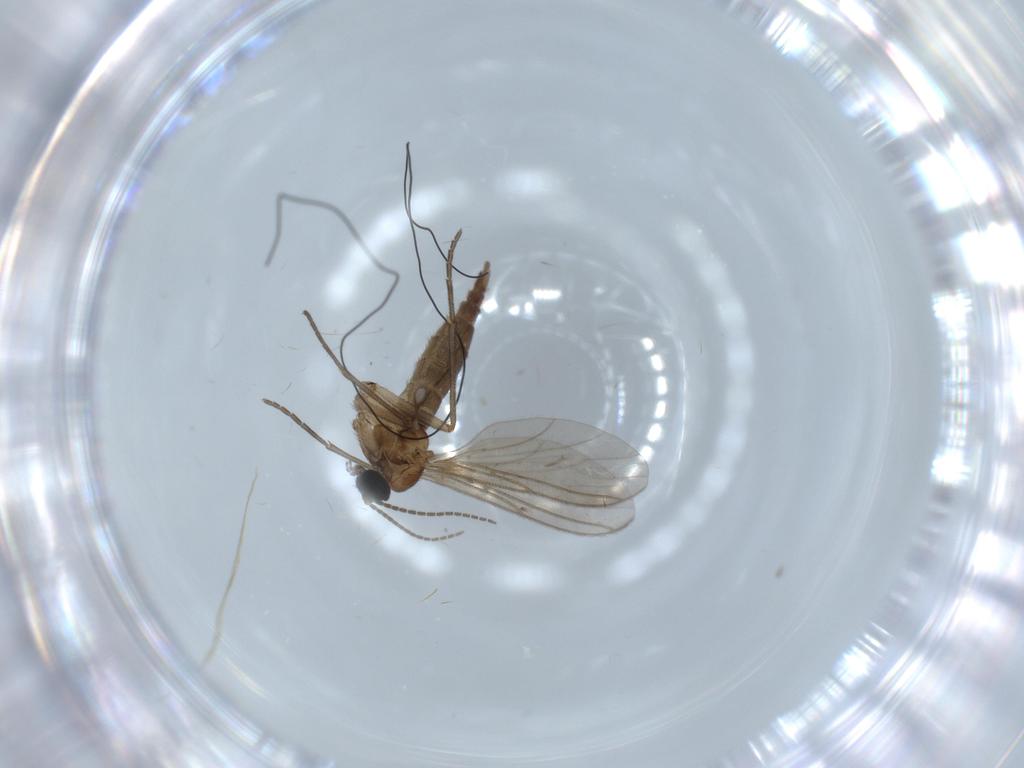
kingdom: Animalia
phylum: Arthropoda
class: Insecta
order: Diptera
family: Sciaridae
